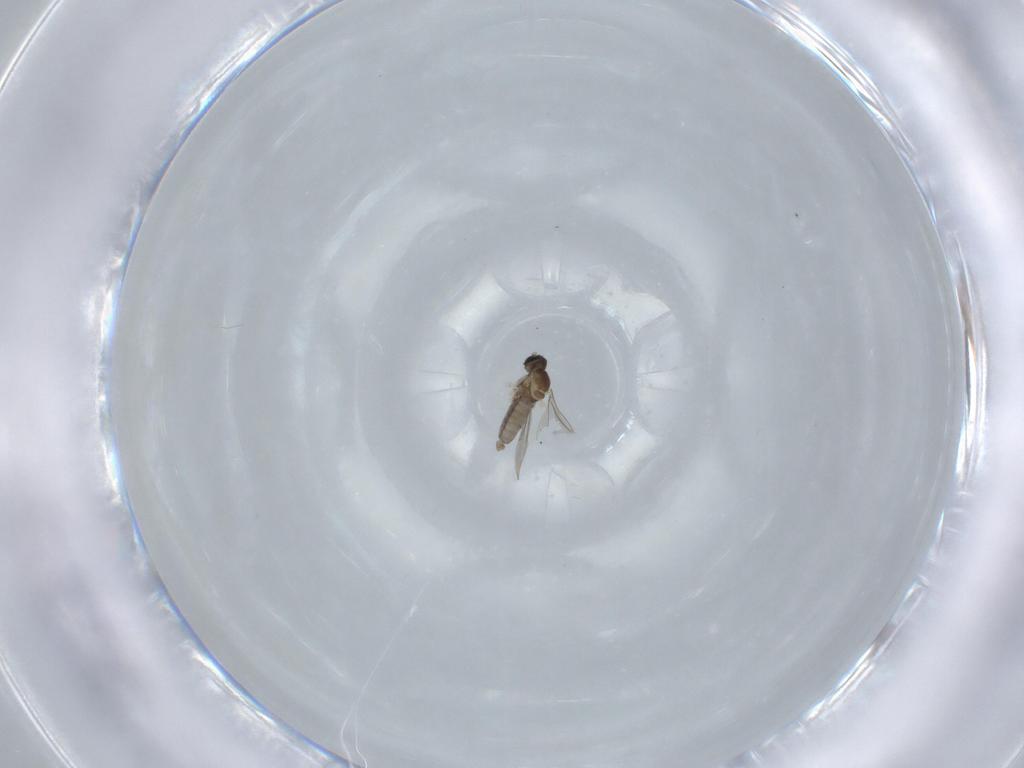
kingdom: Animalia
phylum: Arthropoda
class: Insecta
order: Diptera
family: Cecidomyiidae
